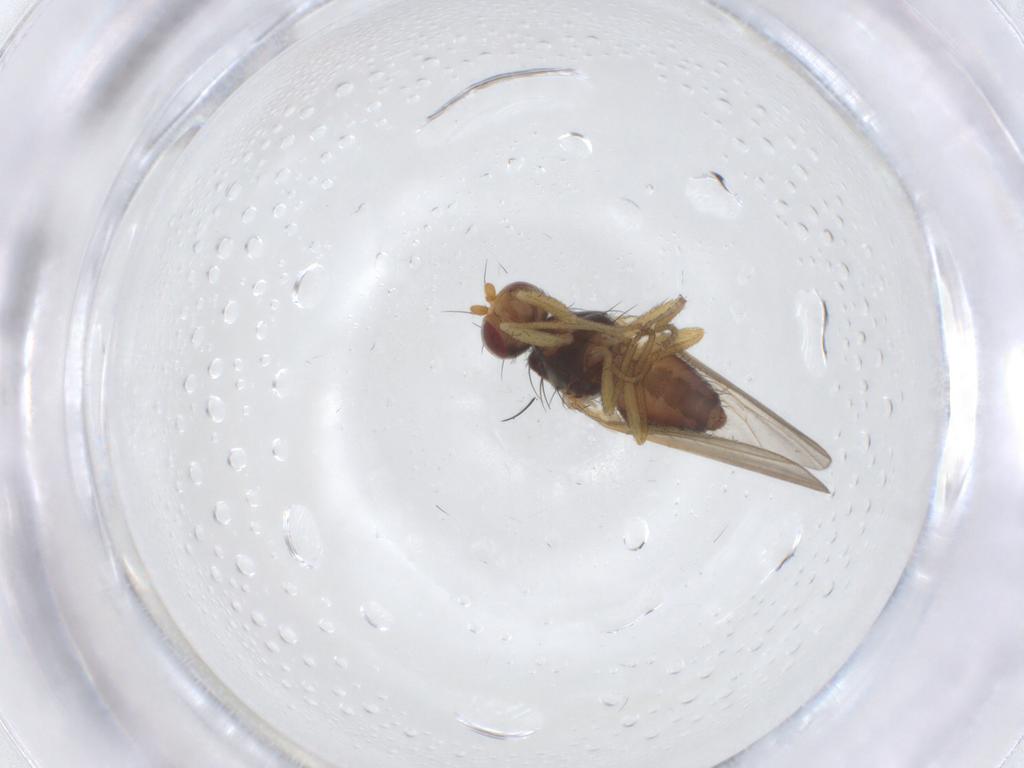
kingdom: Animalia
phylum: Arthropoda
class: Insecta
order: Diptera
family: Heleomyzidae
